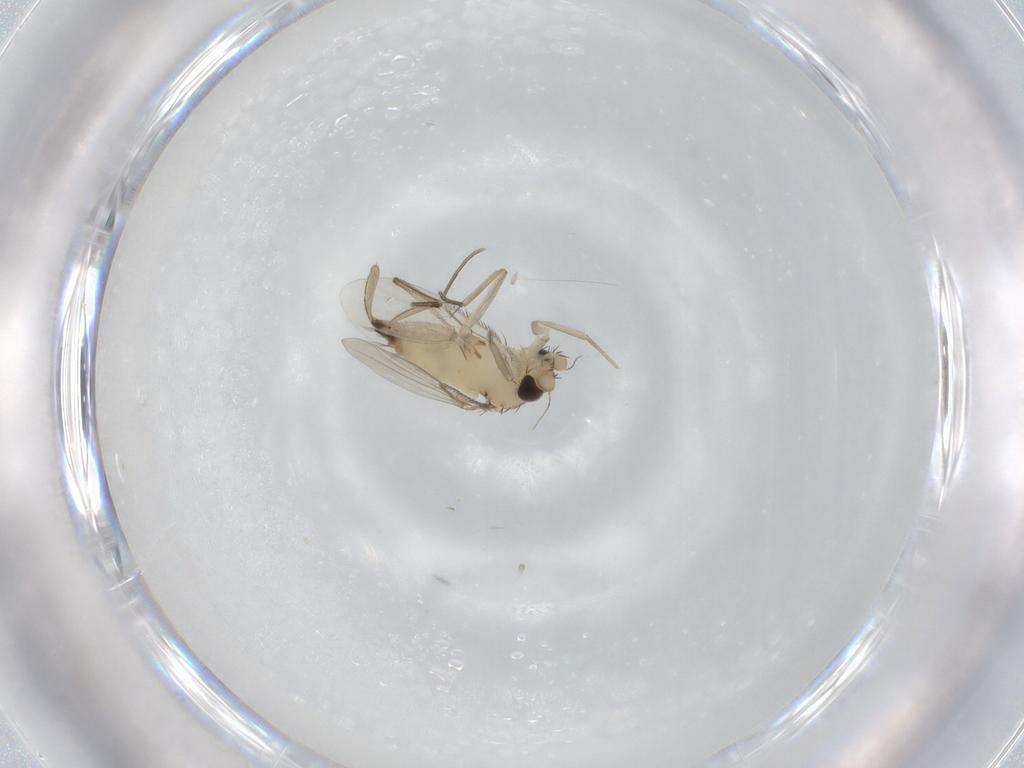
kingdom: Animalia
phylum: Arthropoda
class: Insecta
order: Diptera
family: Phoridae
